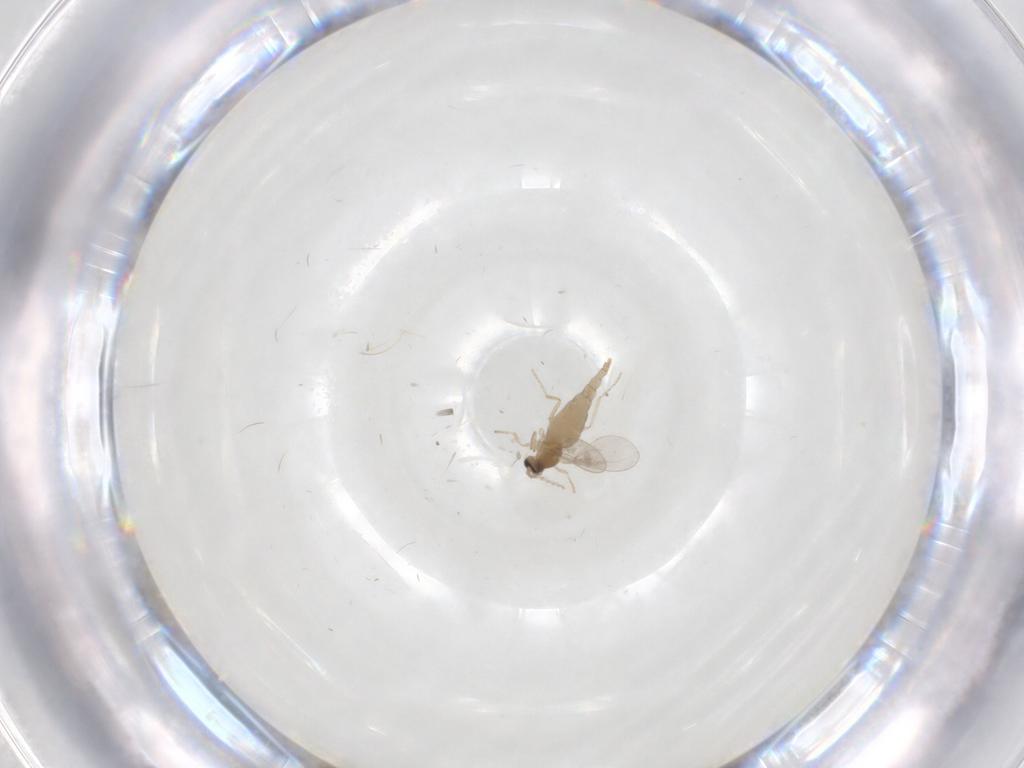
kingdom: Animalia
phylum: Arthropoda
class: Insecta
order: Diptera
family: Cecidomyiidae
